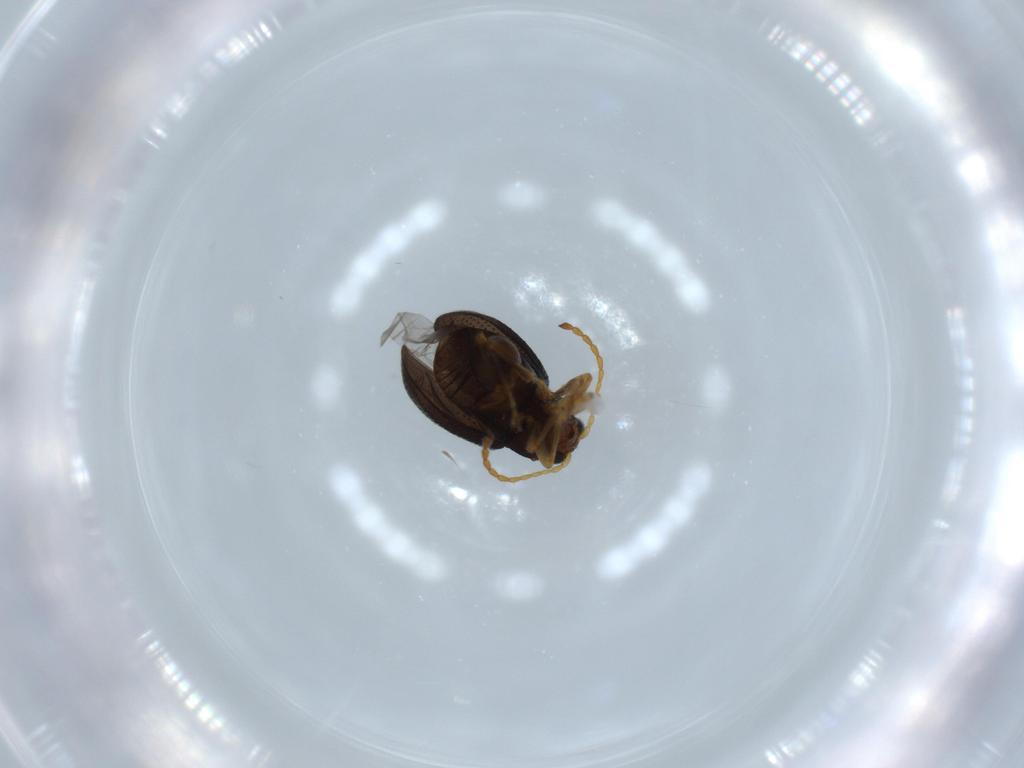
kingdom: Animalia
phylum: Arthropoda
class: Insecta
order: Coleoptera
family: Chrysomelidae
